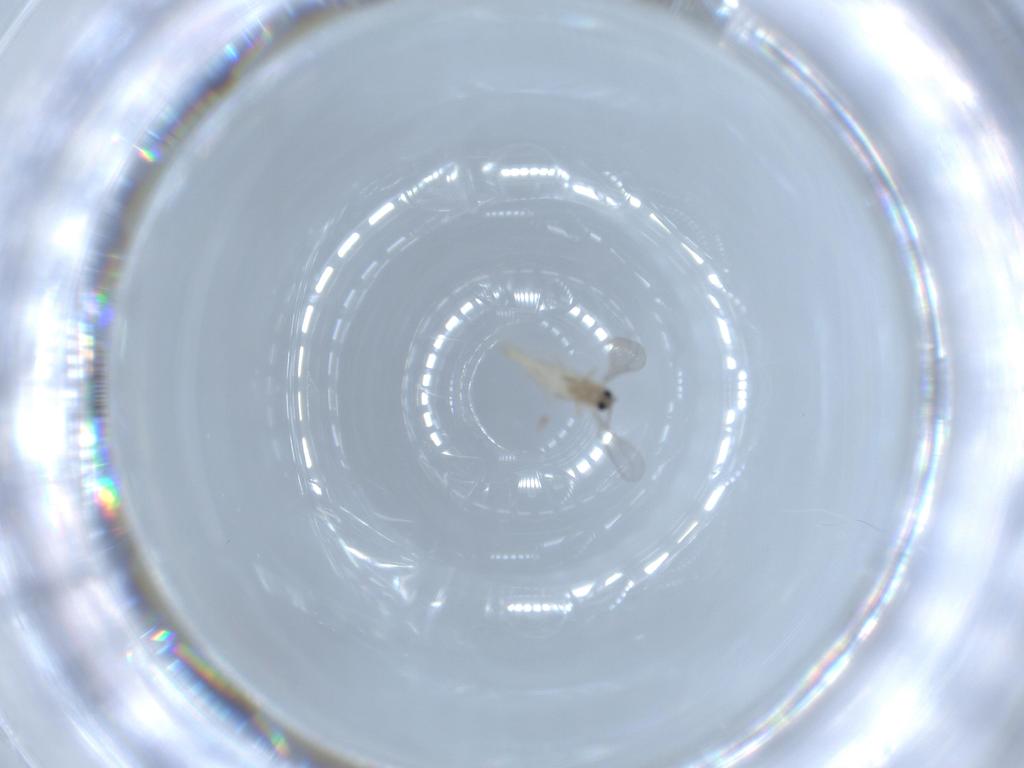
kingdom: Animalia
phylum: Arthropoda
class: Insecta
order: Diptera
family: Cecidomyiidae
